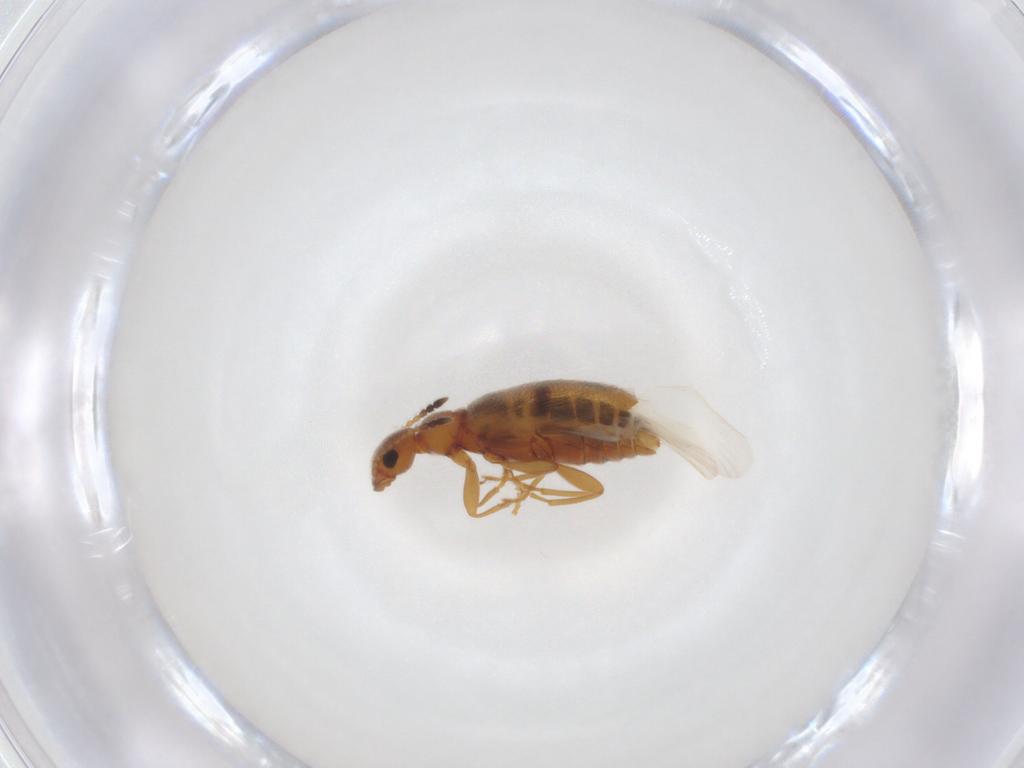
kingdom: Animalia
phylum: Arthropoda
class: Insecta
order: Coleoptera
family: Anthicidae
